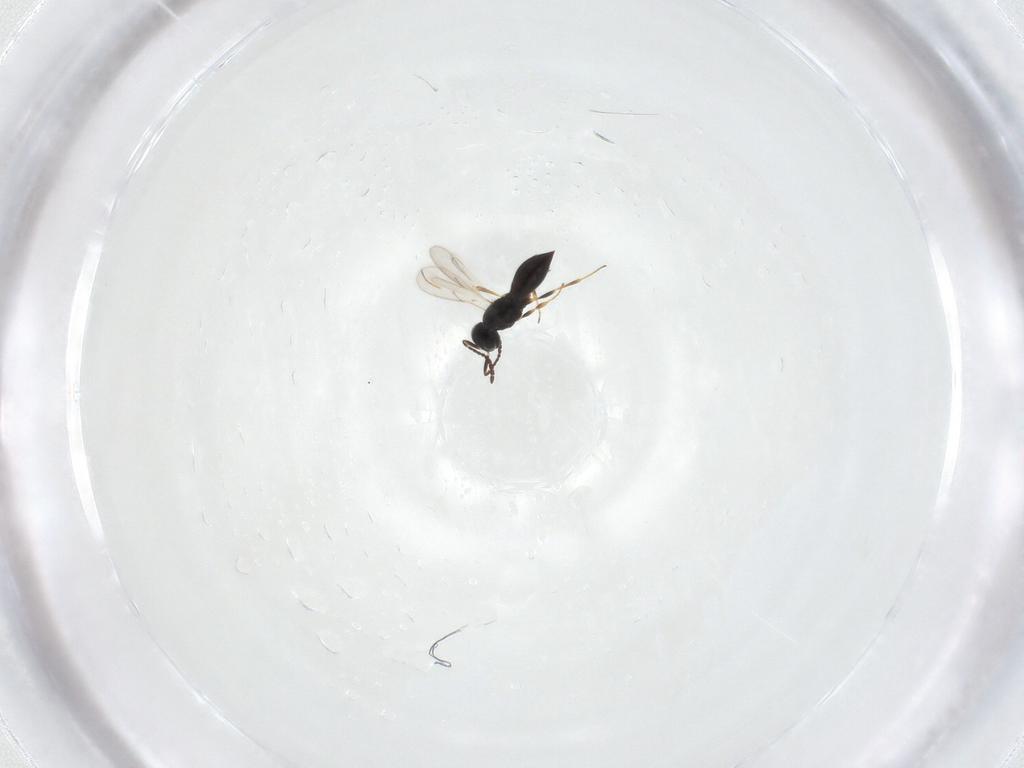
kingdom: Animalia
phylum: Arthropoda
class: Insecta
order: Hymenoptera
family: Scelionidae
